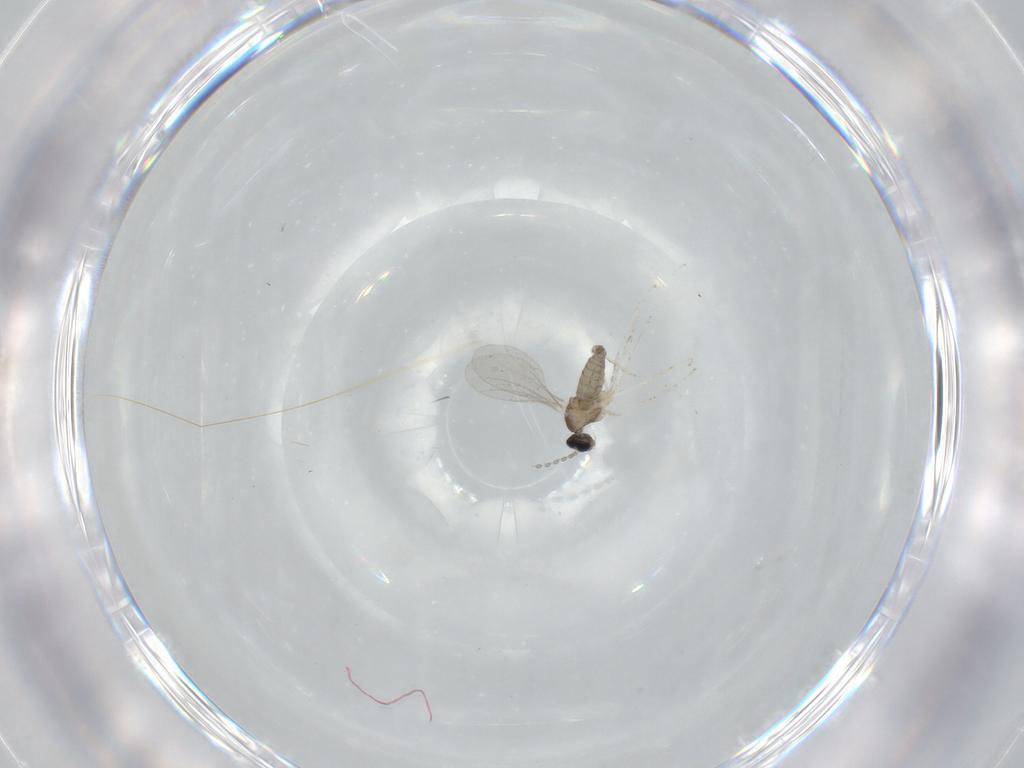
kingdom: Animalia
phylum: Arthropoda
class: Insecta
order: Diptera
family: Cecidomyiidae
